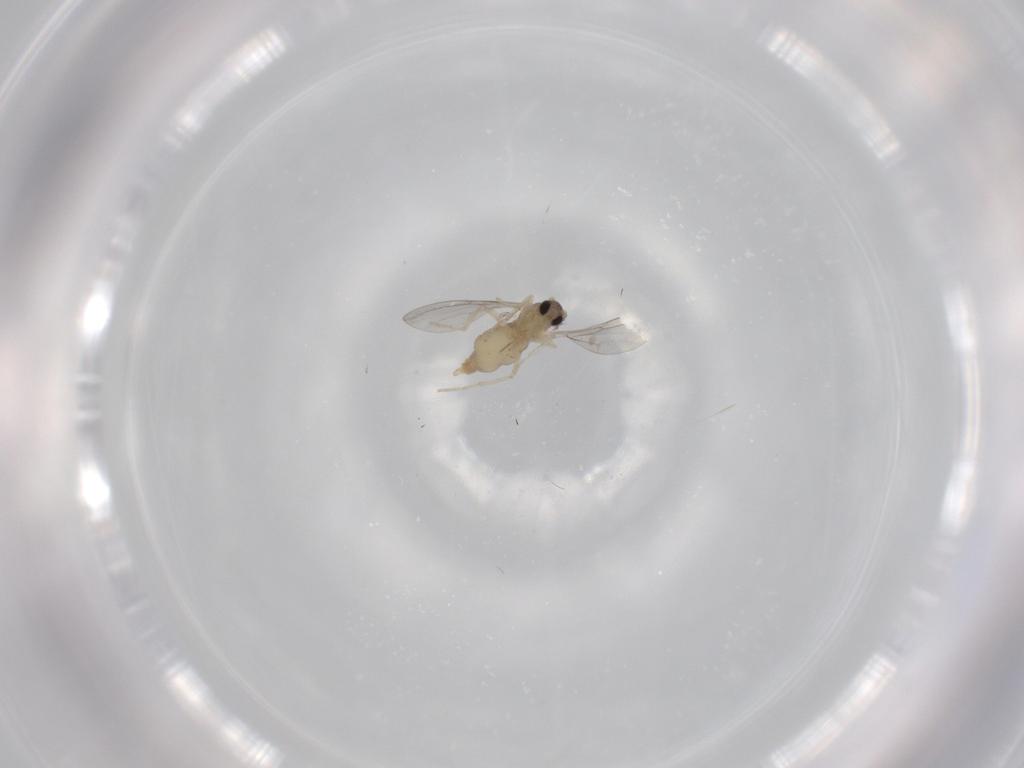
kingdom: Animalia
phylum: Arthropoda
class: Insecta
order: Diptera
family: Cecidomyiidae
